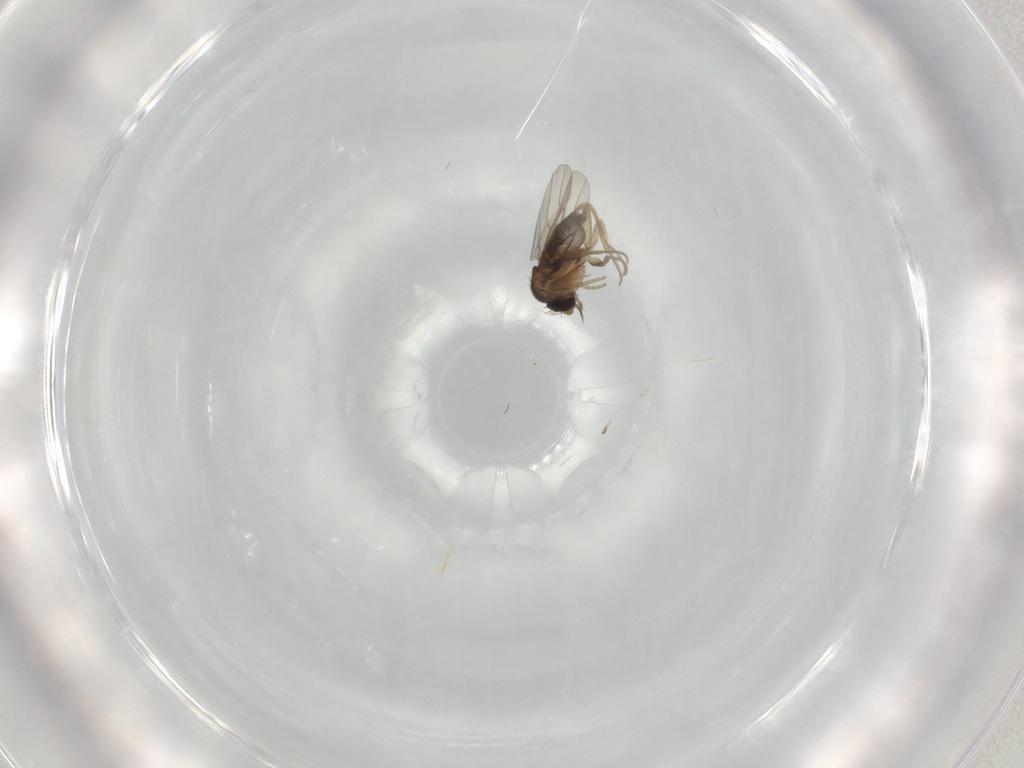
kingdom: Animalia
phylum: Arthropoda
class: Insecta
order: Diptera
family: Phoridae
